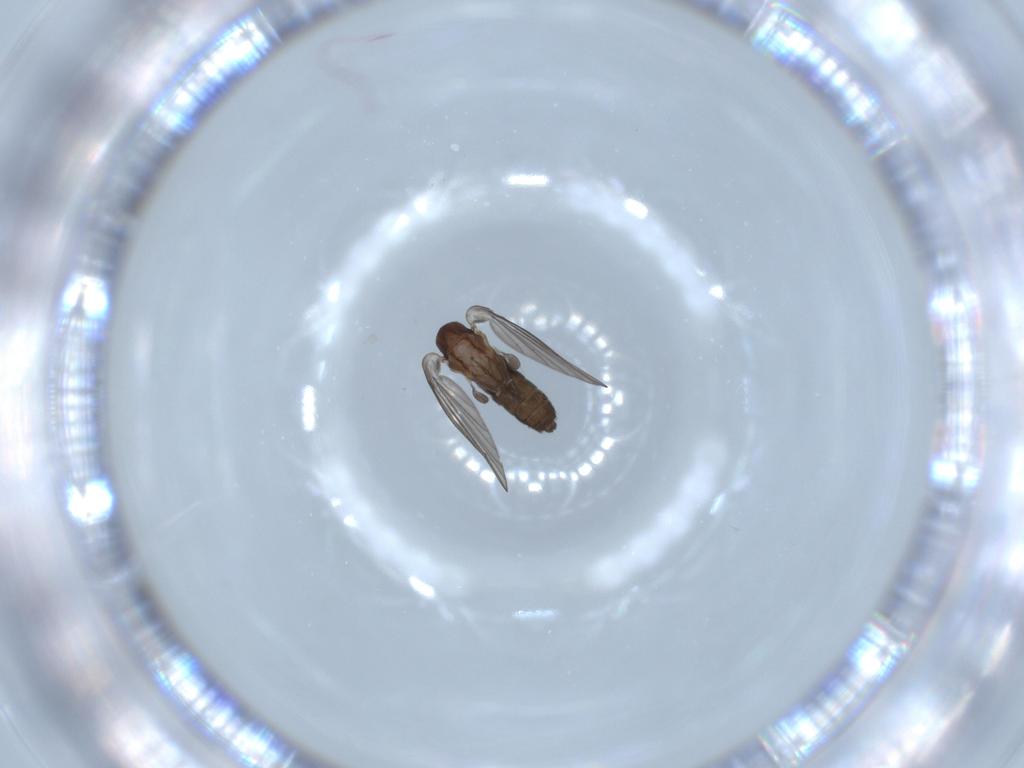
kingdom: Animalia
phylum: Arthropoda
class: Insecta
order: Diptera
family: Psychodidae
